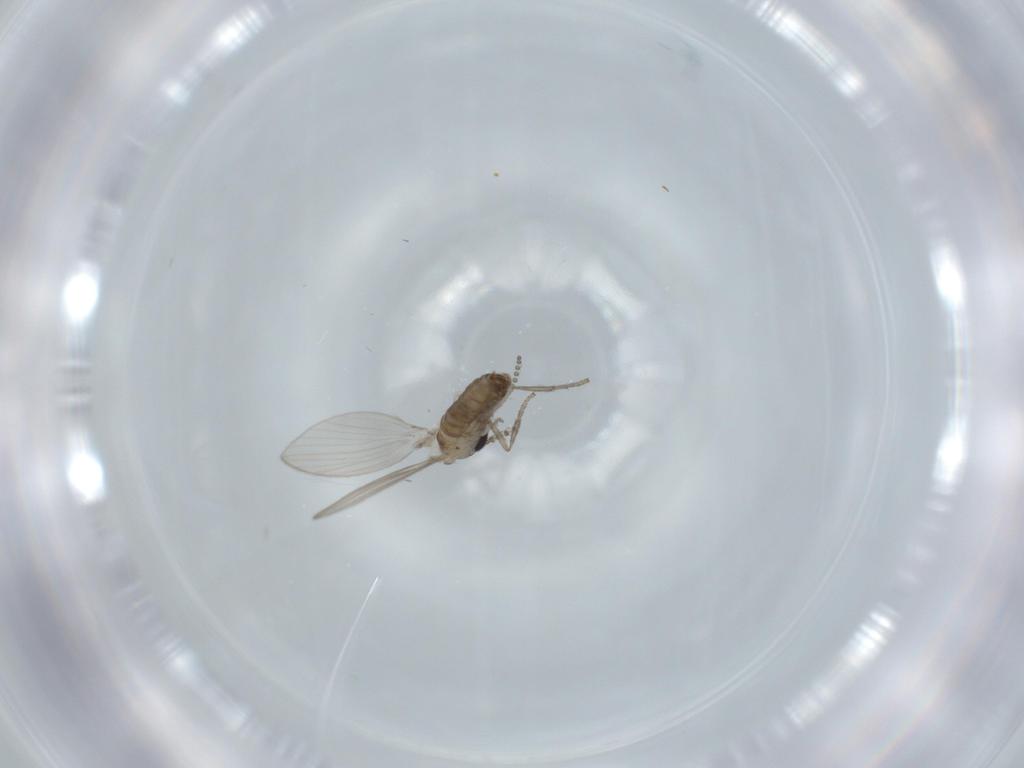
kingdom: Animalia
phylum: Arthropoda
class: Insecta
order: Diptera
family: Psychodidae
